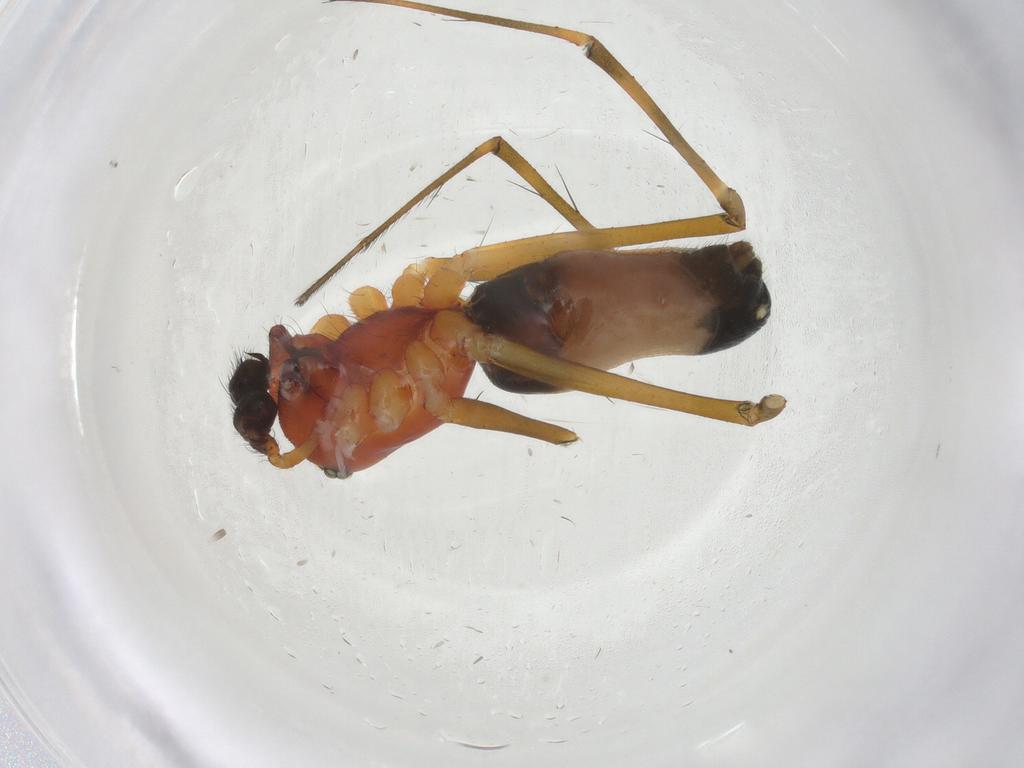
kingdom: Animalia
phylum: Arthropoda
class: Arachnida
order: Araneae
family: Linyphiidae
